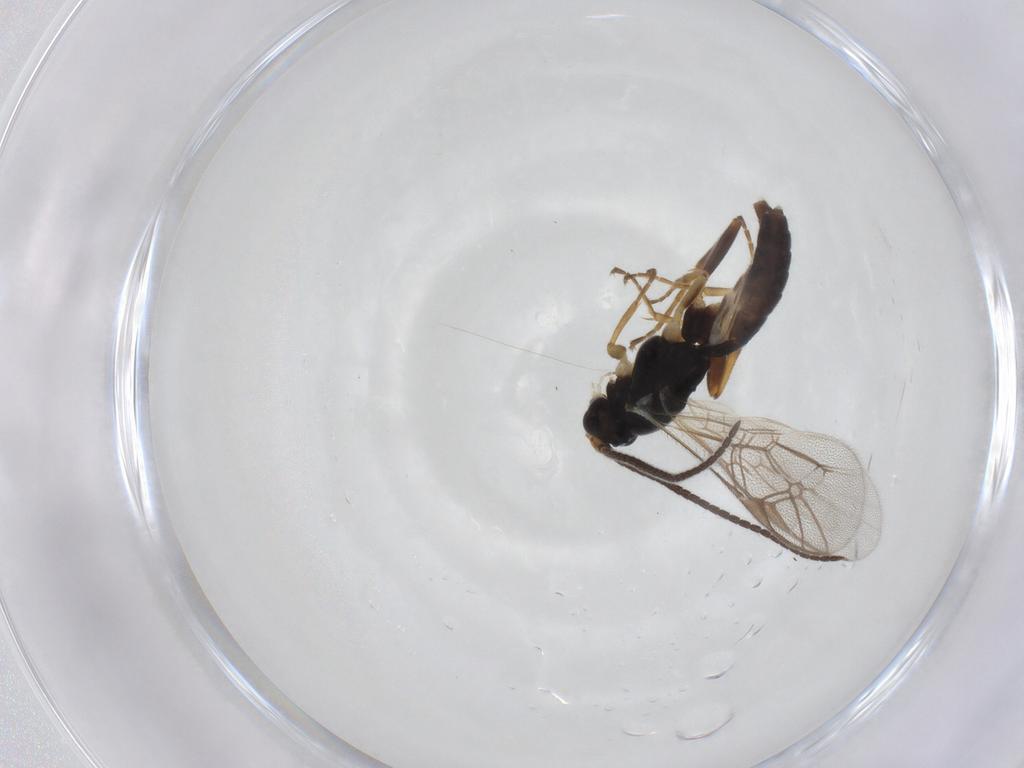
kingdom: Animalia
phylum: Arthropoda
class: Insecta
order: Hymenoptera
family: Ichneumonidae
